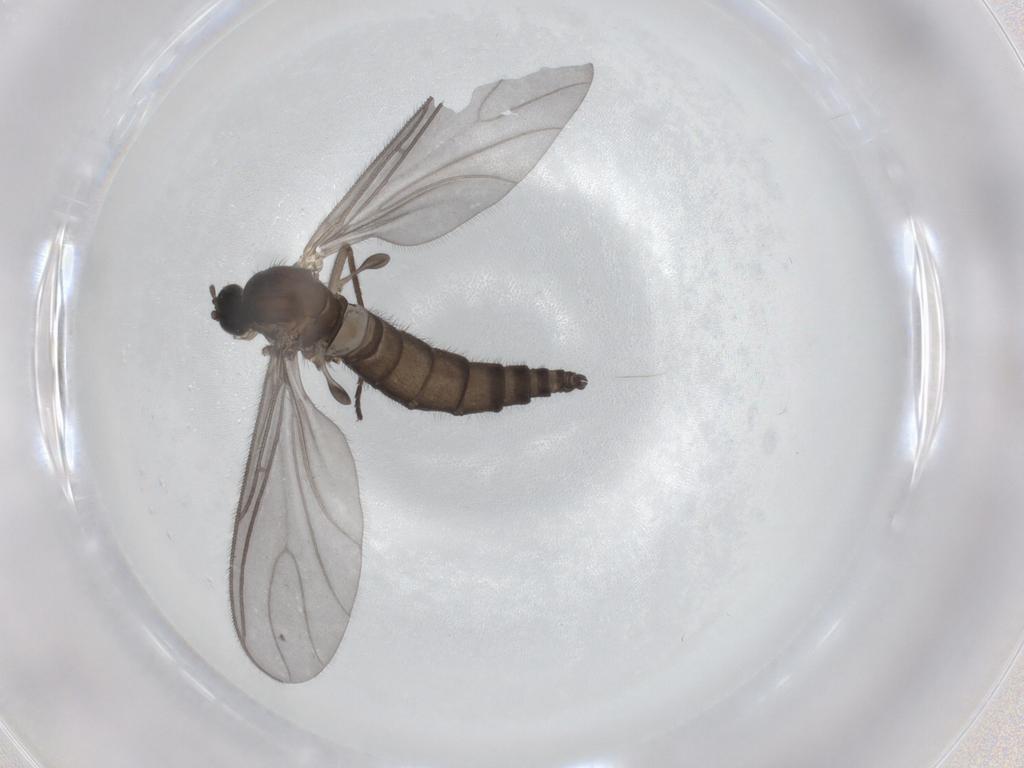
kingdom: Animalia
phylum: Arthropoda
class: Insecta
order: Diptera
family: Sciaridae
